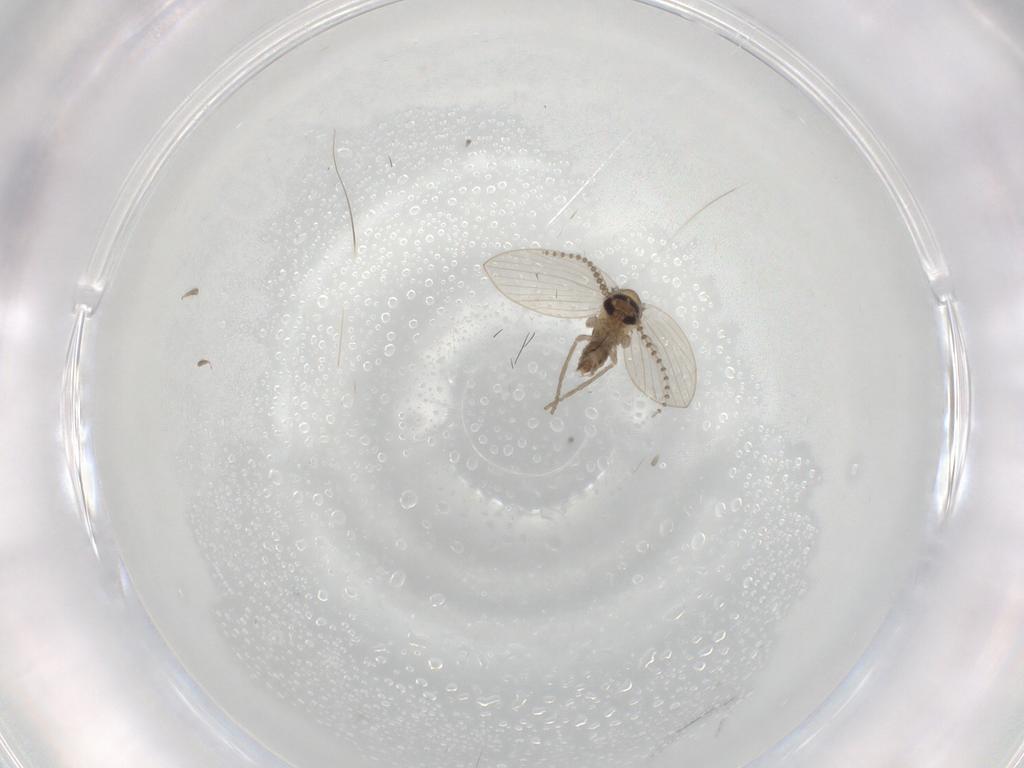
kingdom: Animalia
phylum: Arthropoda
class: Insecta
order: Diptera
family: Psychodidae
